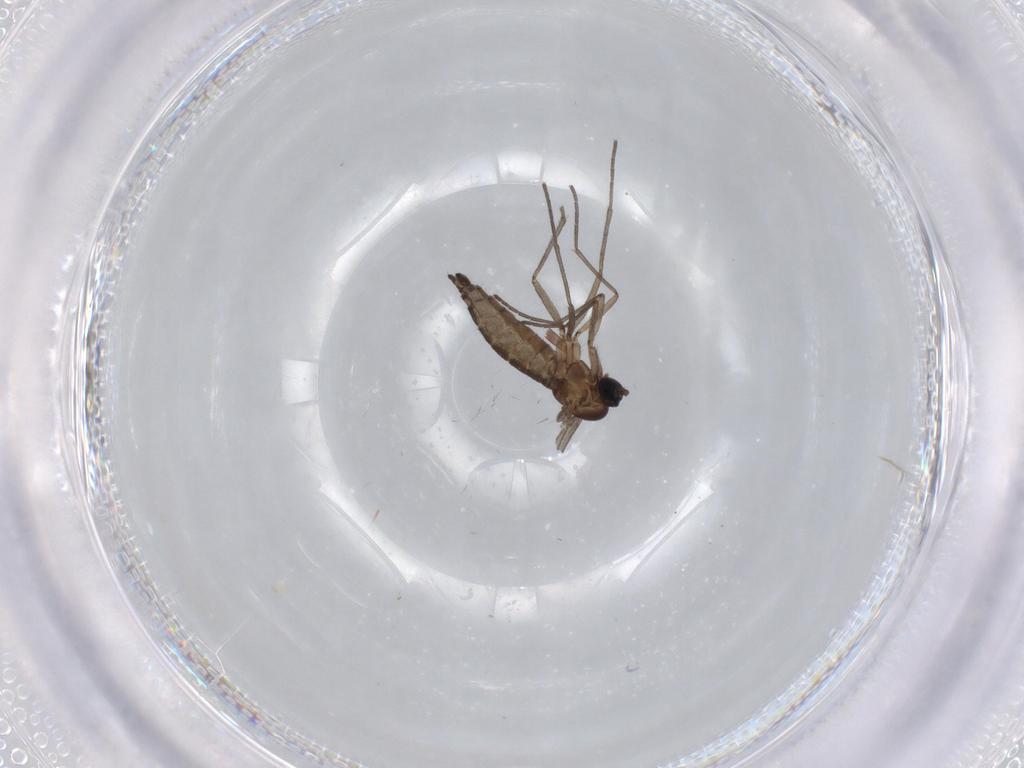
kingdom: Animalia
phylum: Arthropoda
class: Insecta
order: Diptera
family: Sciaridae
